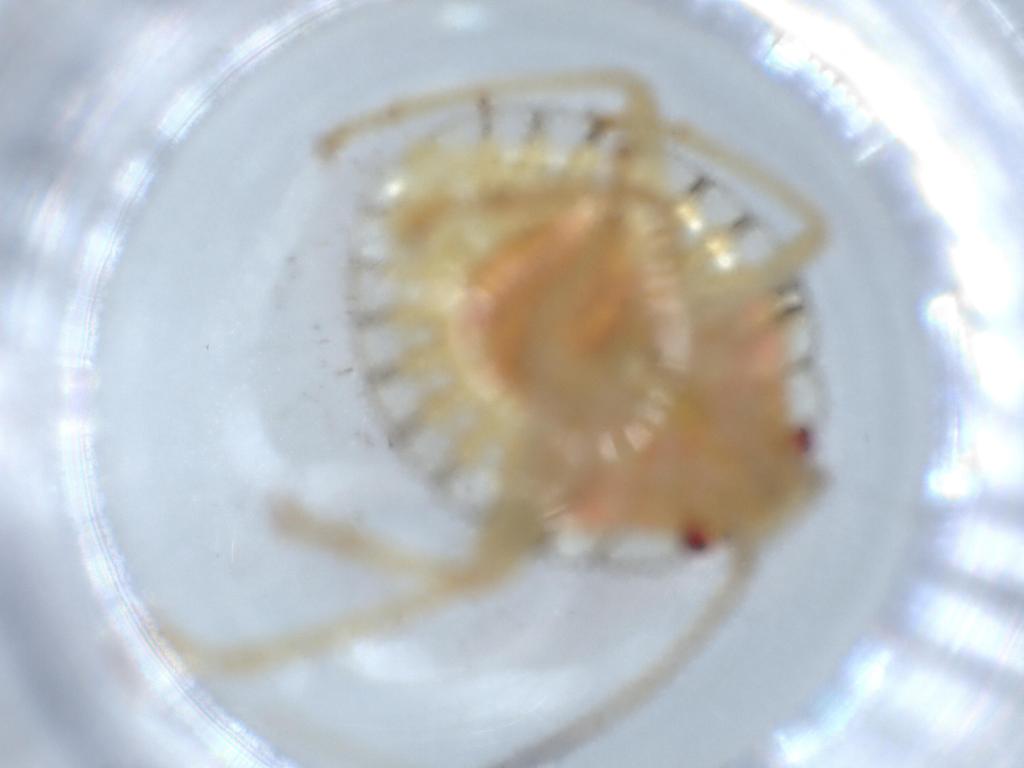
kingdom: Animalia
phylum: Arthropoda
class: Insecta
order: Hemiptera
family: Pentatomidae
